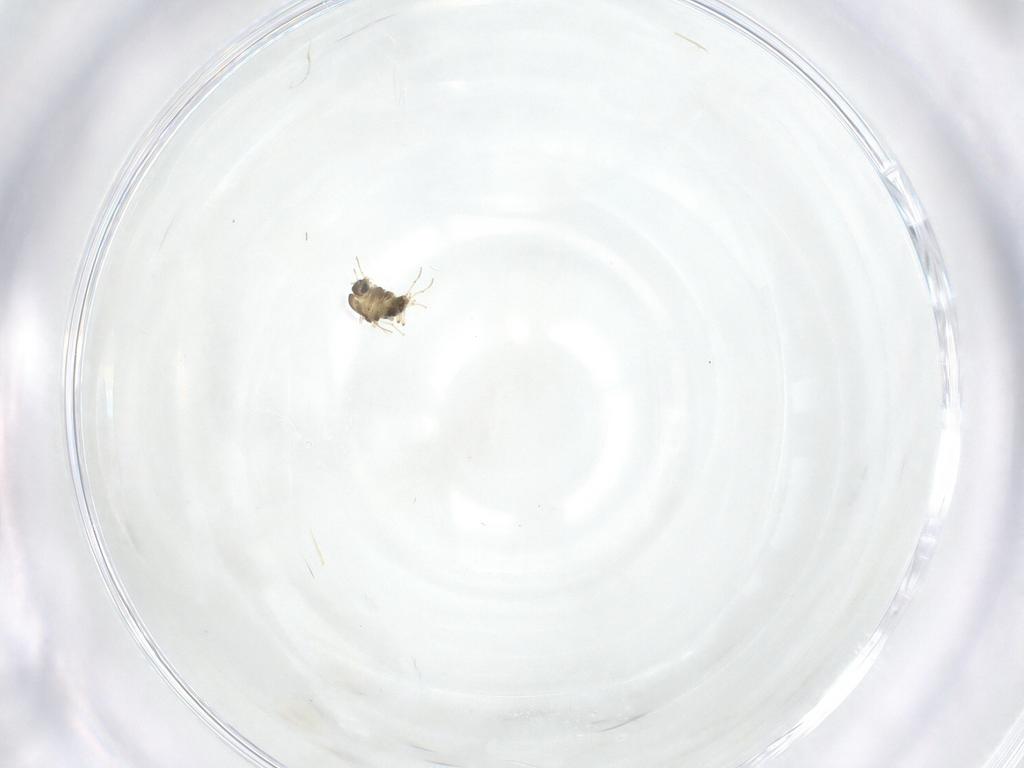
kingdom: Animalia
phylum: Arthropoda
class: Insecta
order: Diptera
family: Chironomidae
